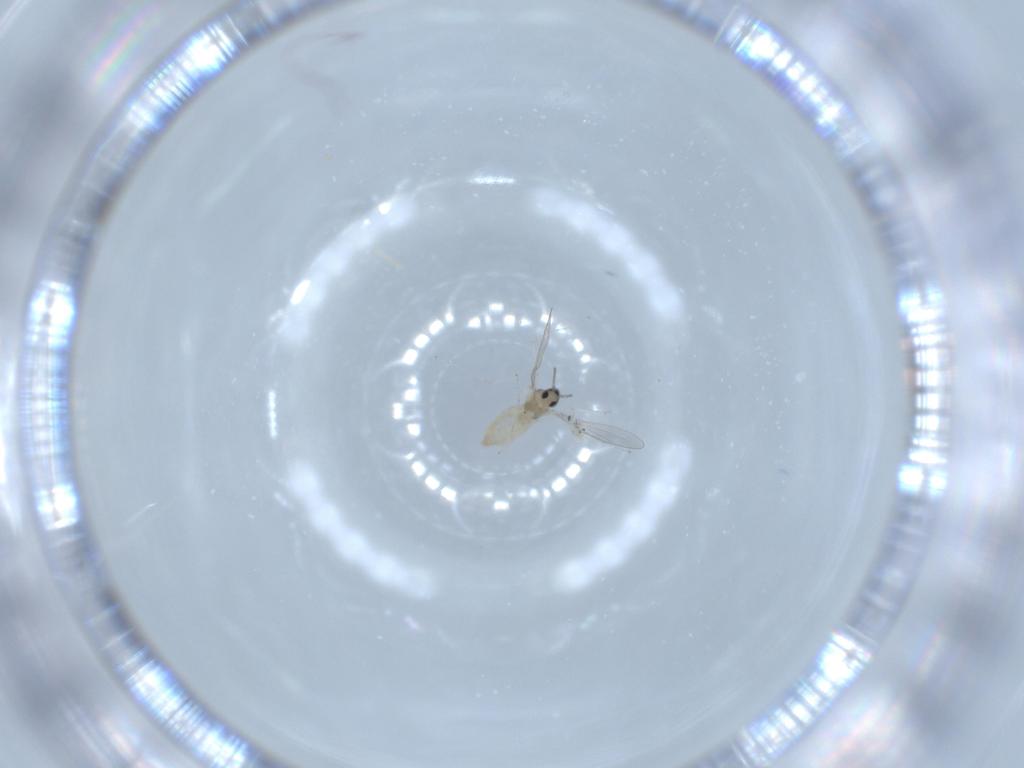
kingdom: Animalia
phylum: Arthropoda
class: Insecta
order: Diptera
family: Cecidomyiidae
